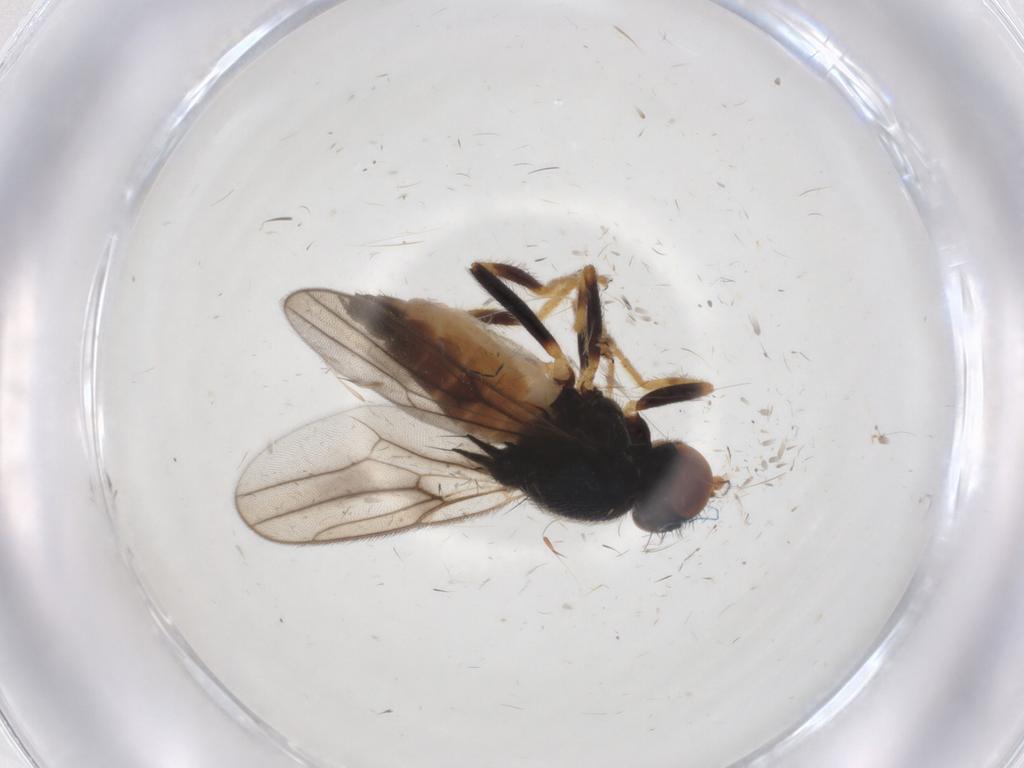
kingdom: Animalia
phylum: Arthropoda
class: Insecta
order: Diptera
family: Chloropidae
